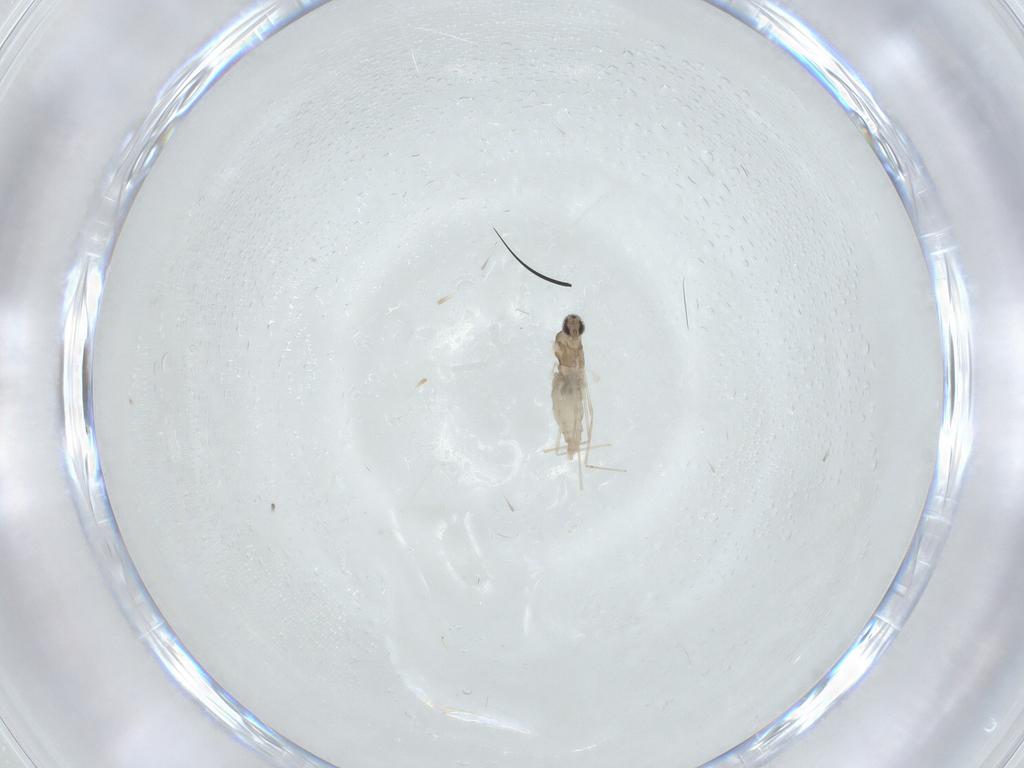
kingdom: Animalia
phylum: Arthropoda
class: Insecta
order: Diptera
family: Cecidomyiidae
